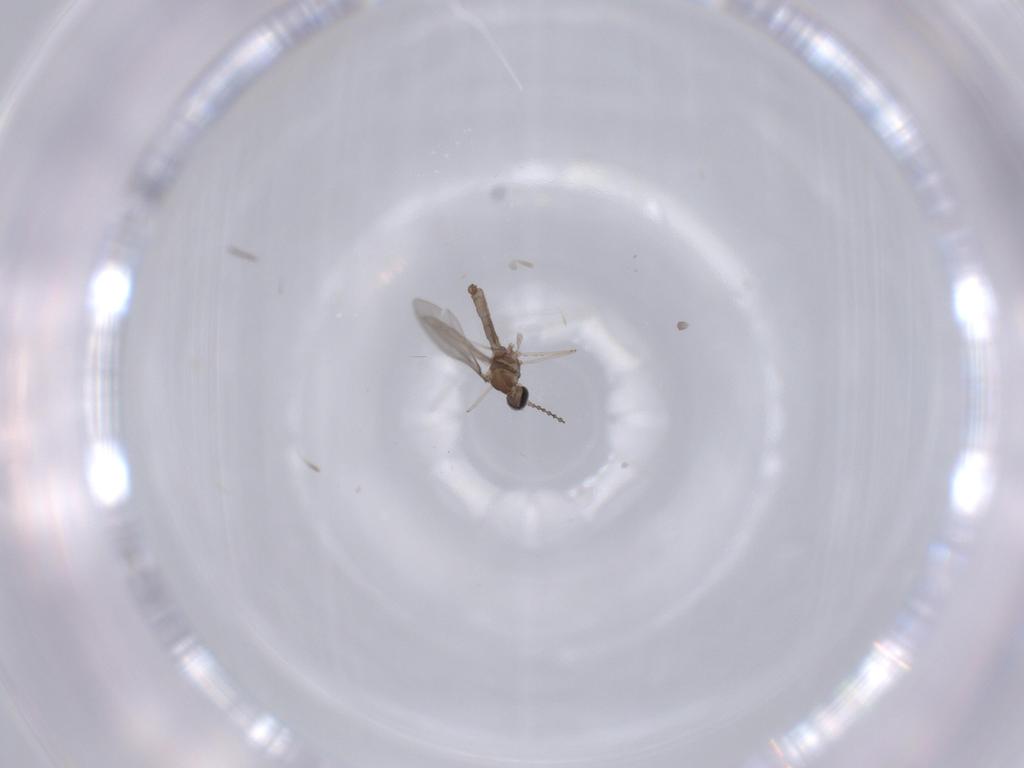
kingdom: Animalia
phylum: Arthropoda
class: Insecta
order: Diptera
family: Cecidomyiidae
